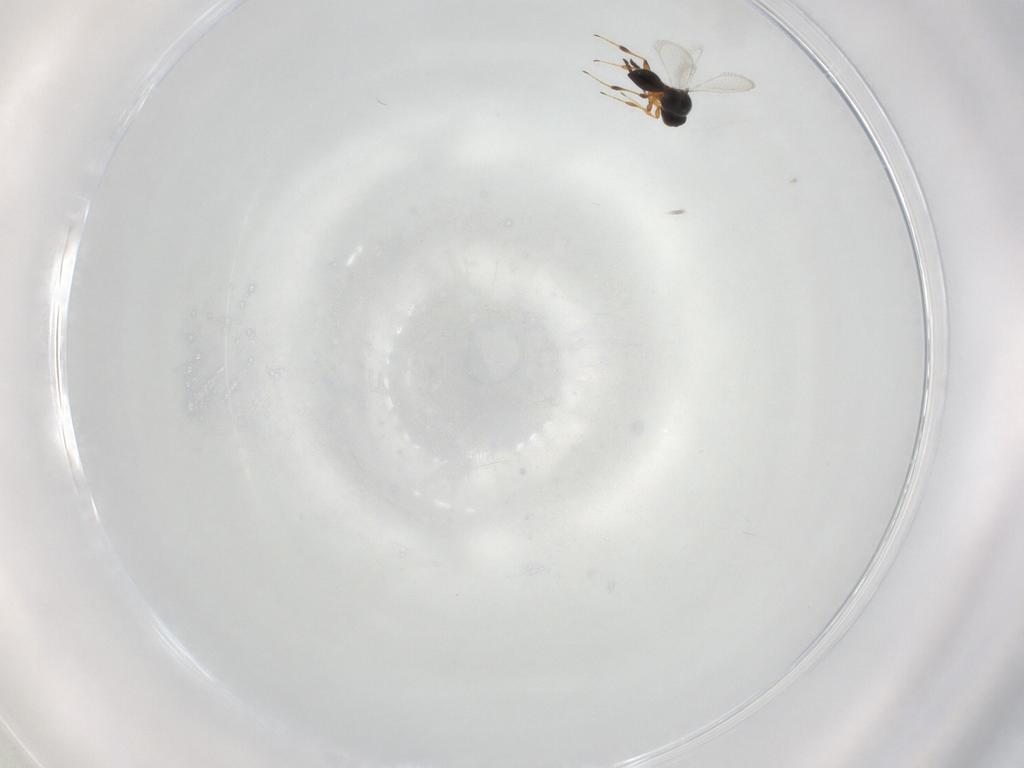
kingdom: Animalia
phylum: Arthropoda
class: Insecta
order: Hymenoptera
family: Platygastridae
